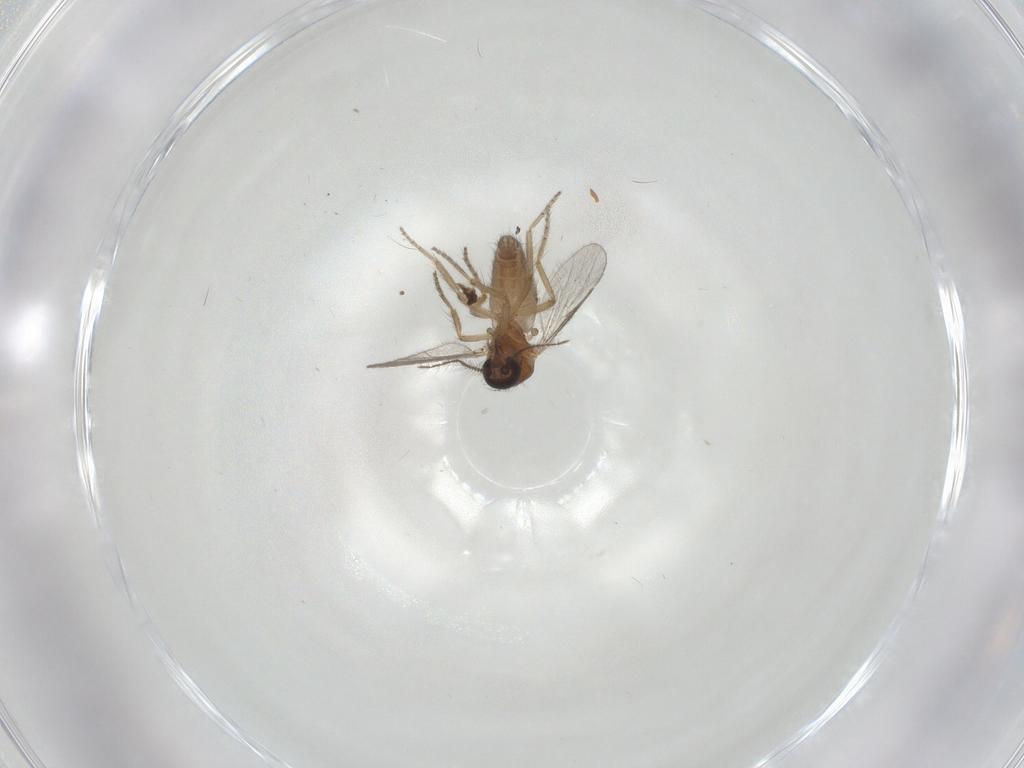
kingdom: Animalia
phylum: Arthropoda
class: Insecta
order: Diptera
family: Ceratopogonidae
